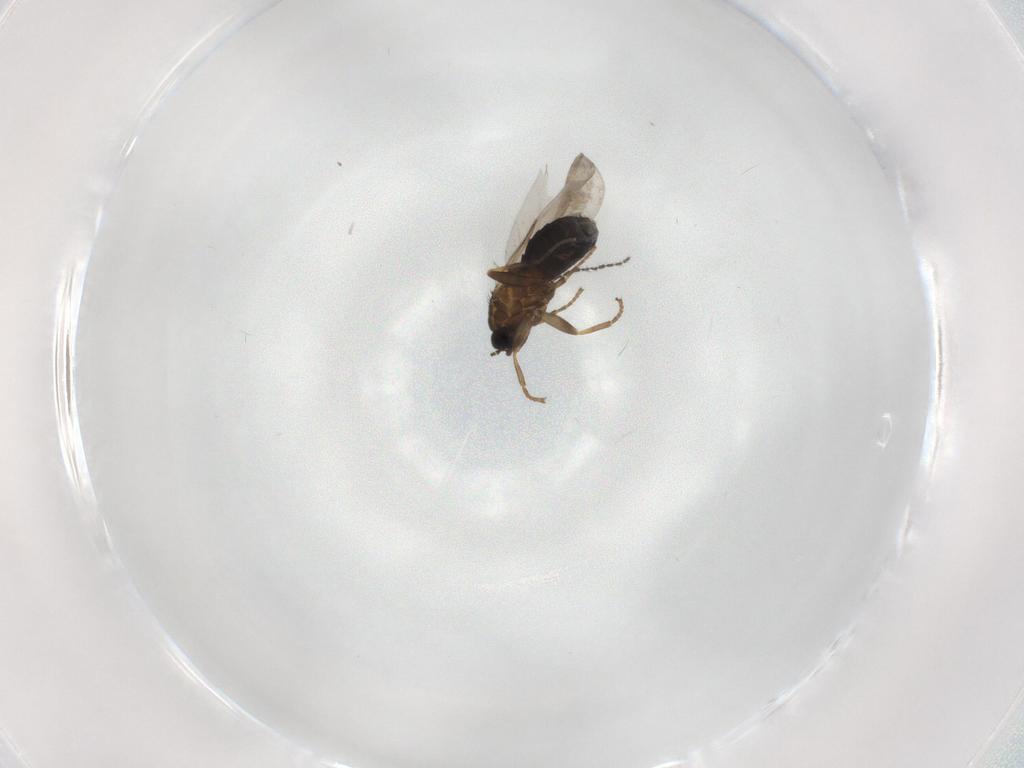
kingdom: Animalia
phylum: Arthropoda
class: Insecta
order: Diptera
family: Scatopsidae
